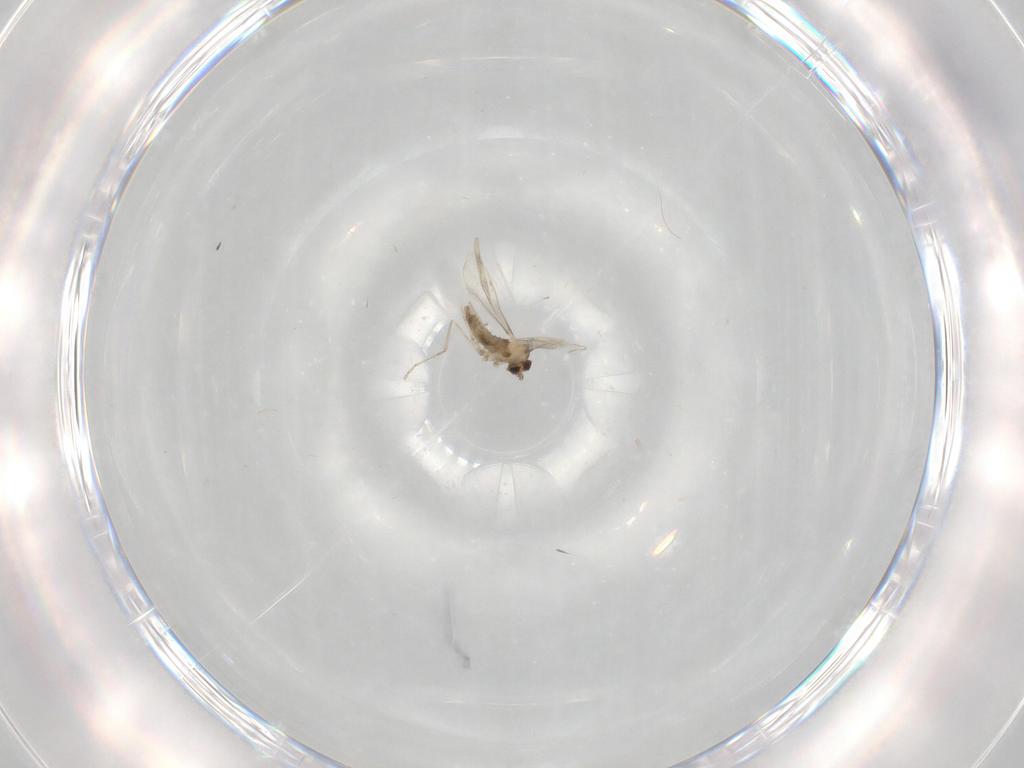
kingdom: Animalia
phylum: Arthropoda
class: Insecta
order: Diptera
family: Cecidomyiidae
